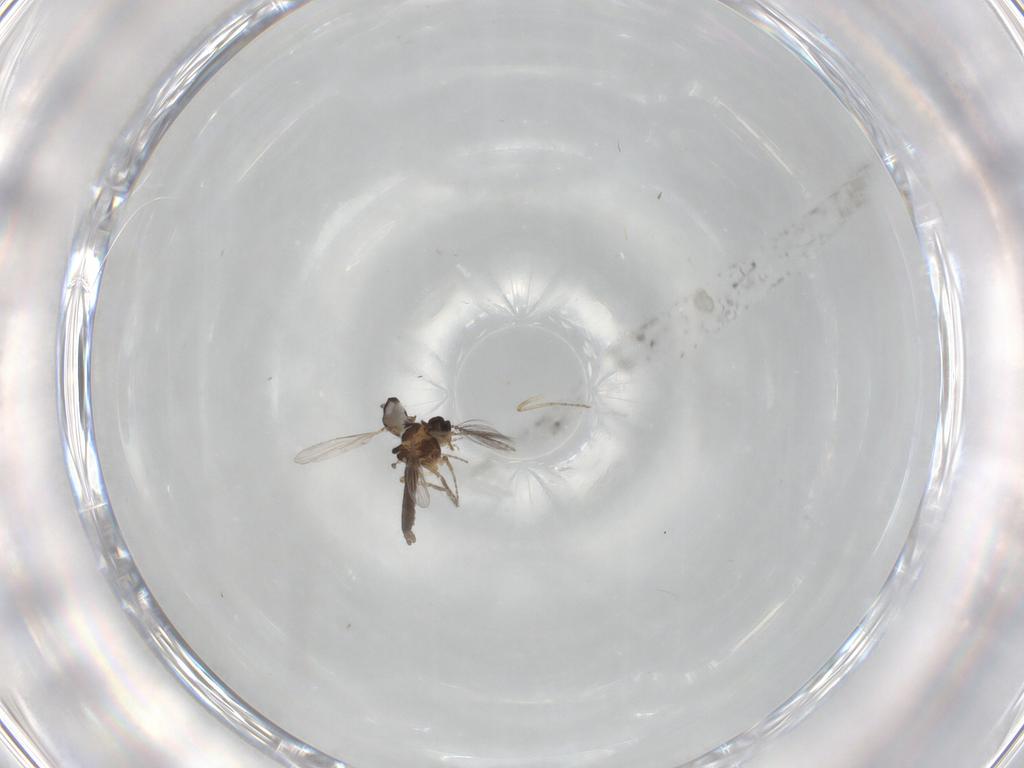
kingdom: Animalia
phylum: Arthropoda
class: Insecta
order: Diptera
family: Ceratopogonidae
